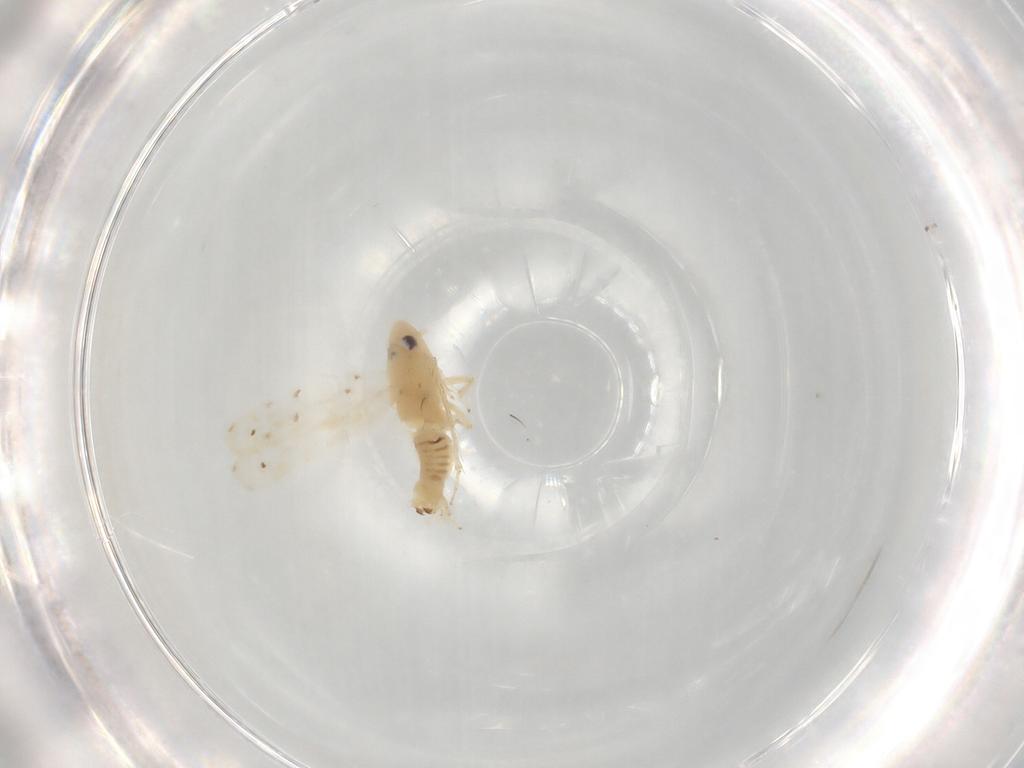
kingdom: Animalia
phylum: Arthropoda
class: Insecta
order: Hemiptera
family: Cicadellidae
